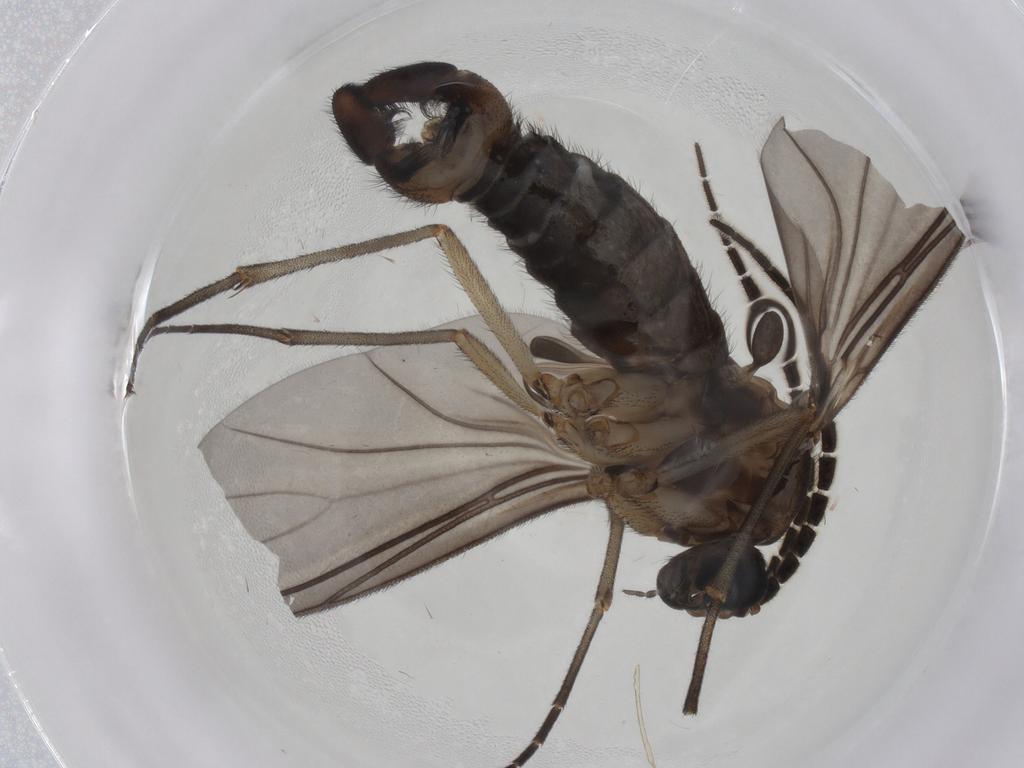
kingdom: Animalia
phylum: Arthropoda
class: Insecta
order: Diptera
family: Sciaridae
